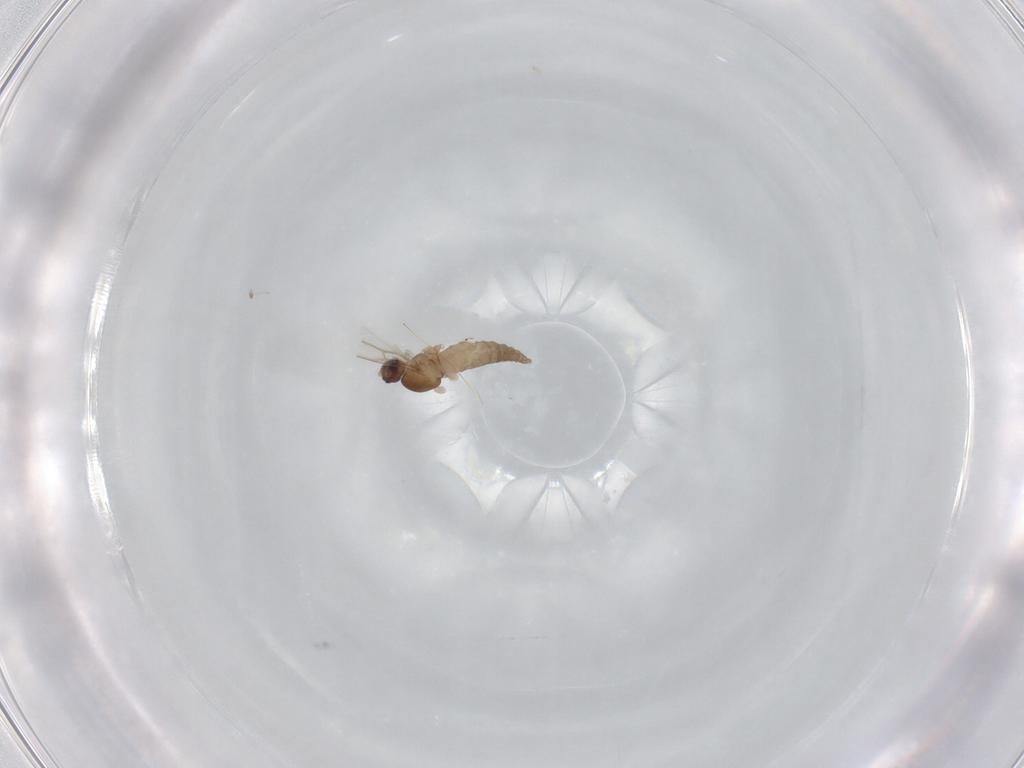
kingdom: Animalia
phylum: Arthropoda
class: Insecta
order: Diptera
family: Cecidomyiidae
